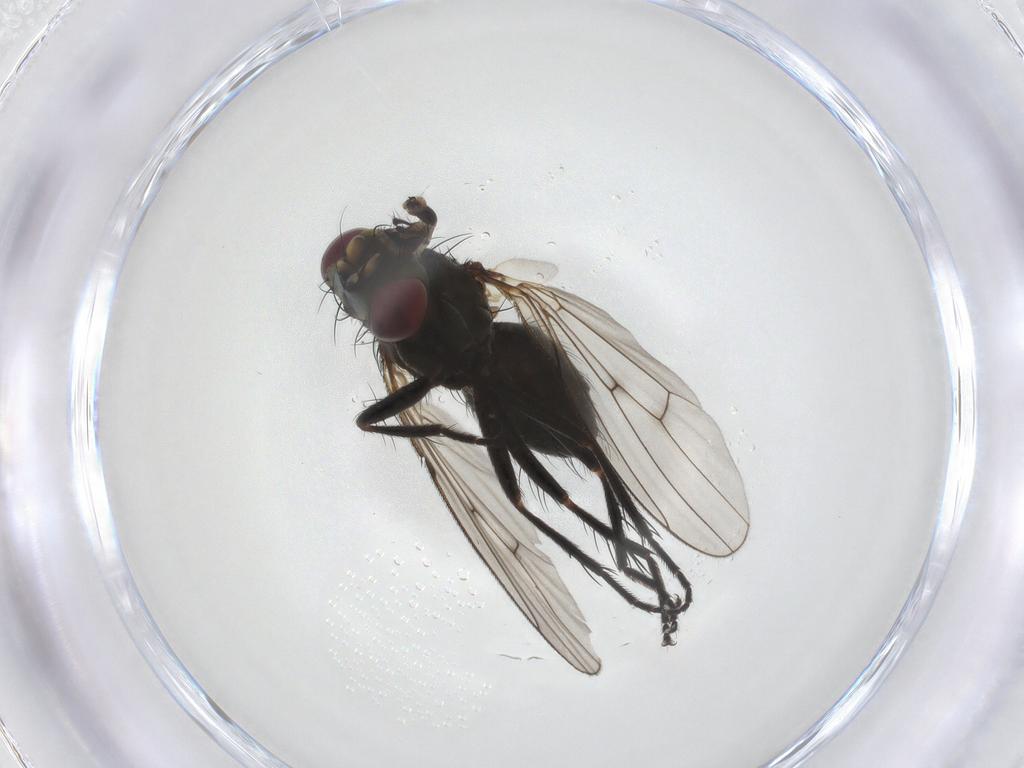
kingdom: Animalia
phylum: Arthropoda
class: Insecta
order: Diptera
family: Muscidae
